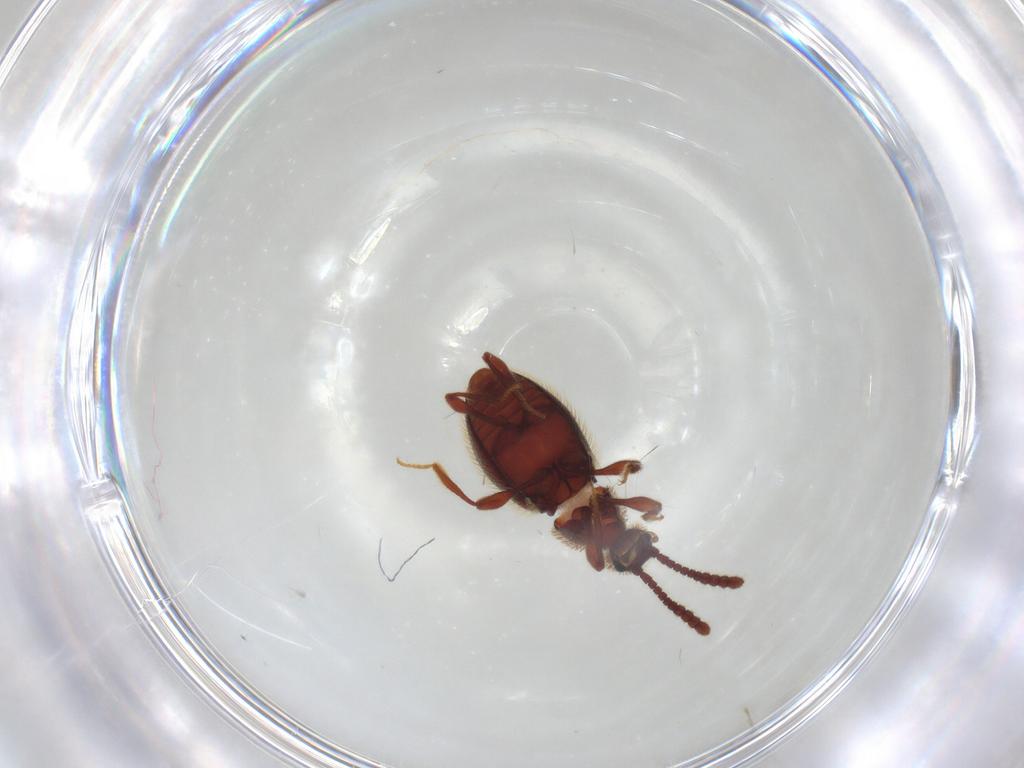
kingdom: Animalia
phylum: Arthropoda
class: Insecta
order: Coleoptera
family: Staphylinidae
